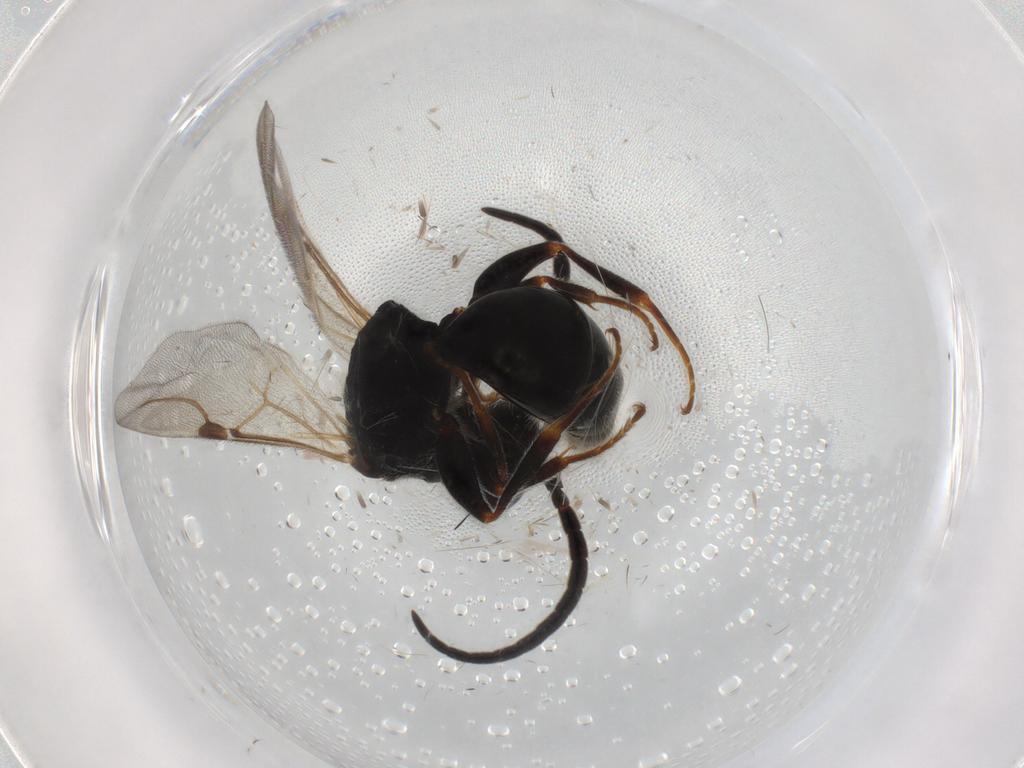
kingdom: Animalia
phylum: Arthropoda
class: Insecta
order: Hymenoptera
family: Bethylidae
